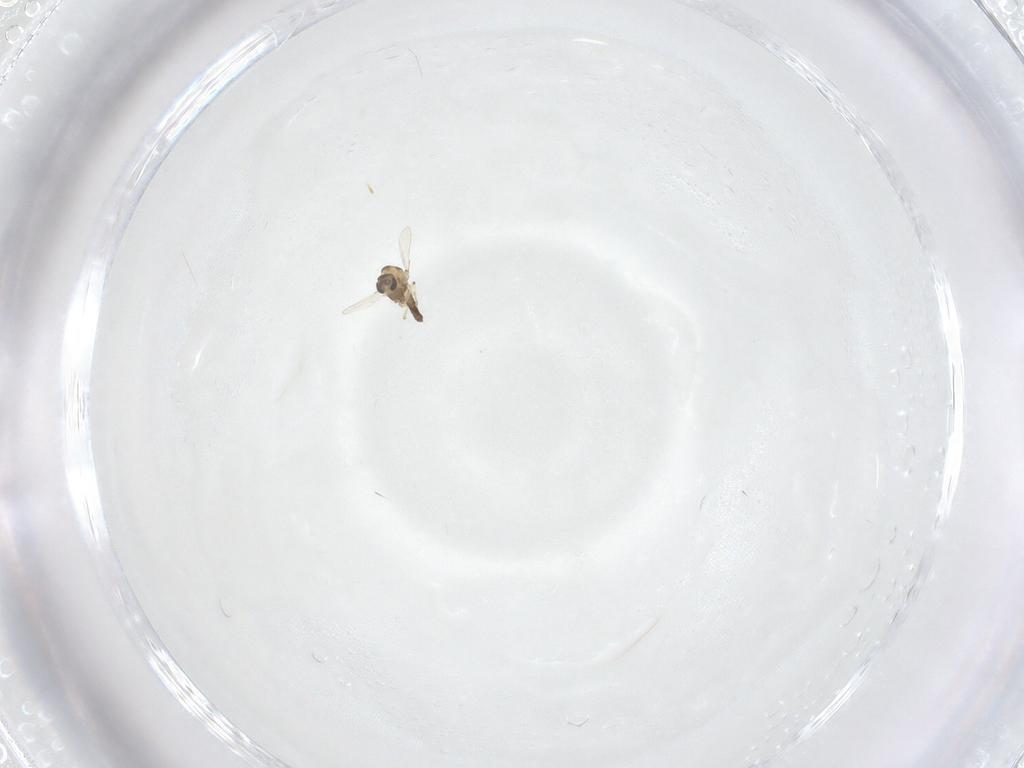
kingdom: Animalia
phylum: Arthropoda
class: Insecta
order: Diptera
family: Chironomidae
